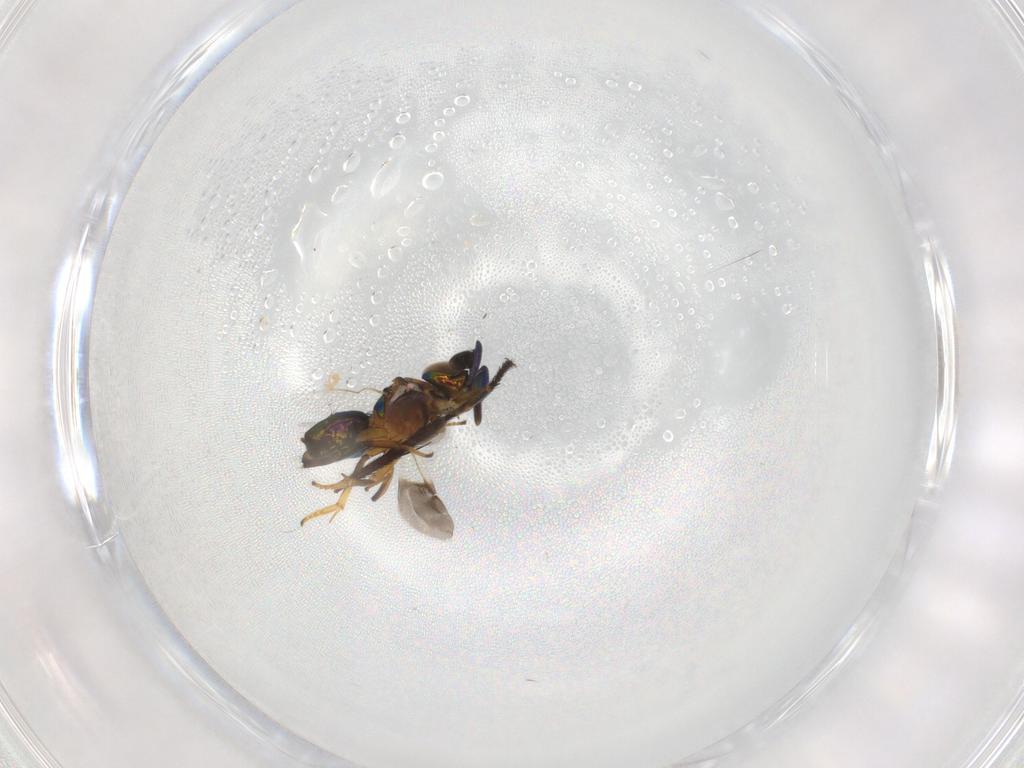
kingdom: Animalia
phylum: Arthropoda
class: Insecta
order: Hymenoptera
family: Encyrtidae
